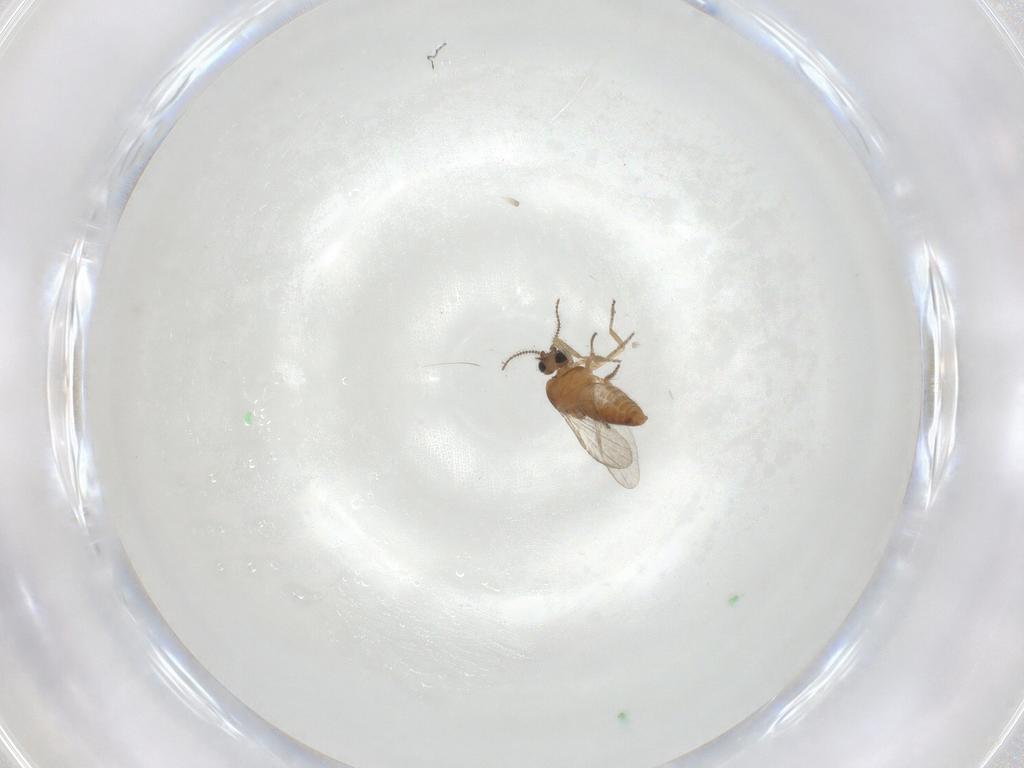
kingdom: Animalia
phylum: Arthropoda
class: Insecta
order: Diptera
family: Ceratopogonidae
